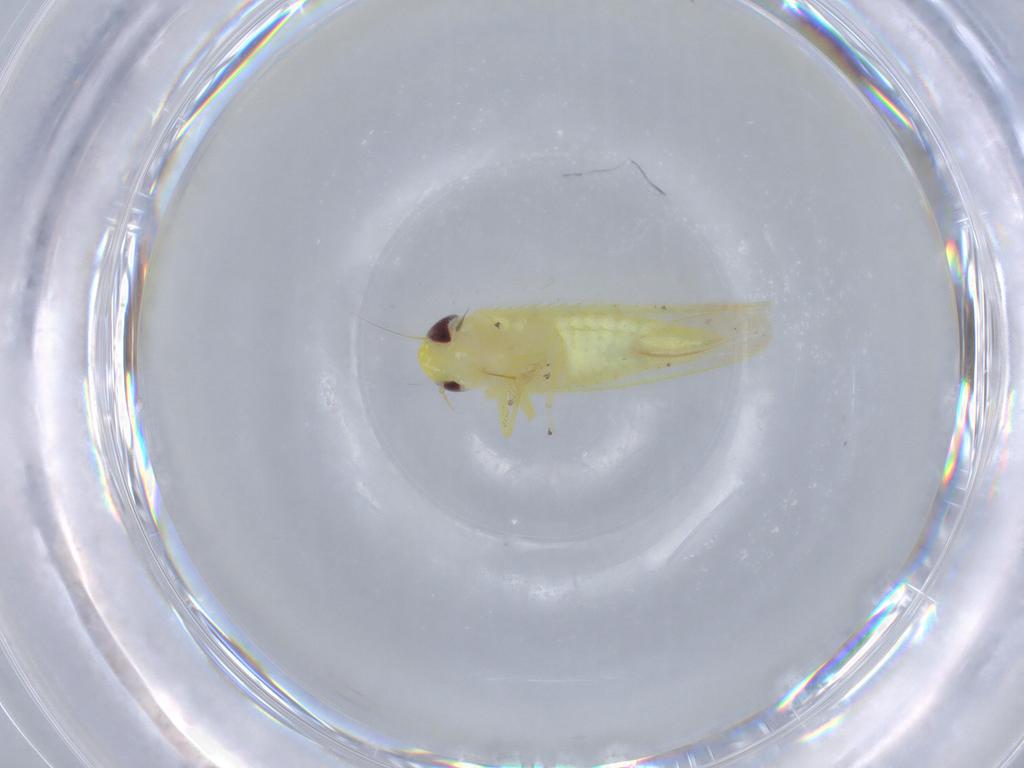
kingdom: Animalia
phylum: Arthropoda
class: Insecta
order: Hemiptera
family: Cicadellidae
